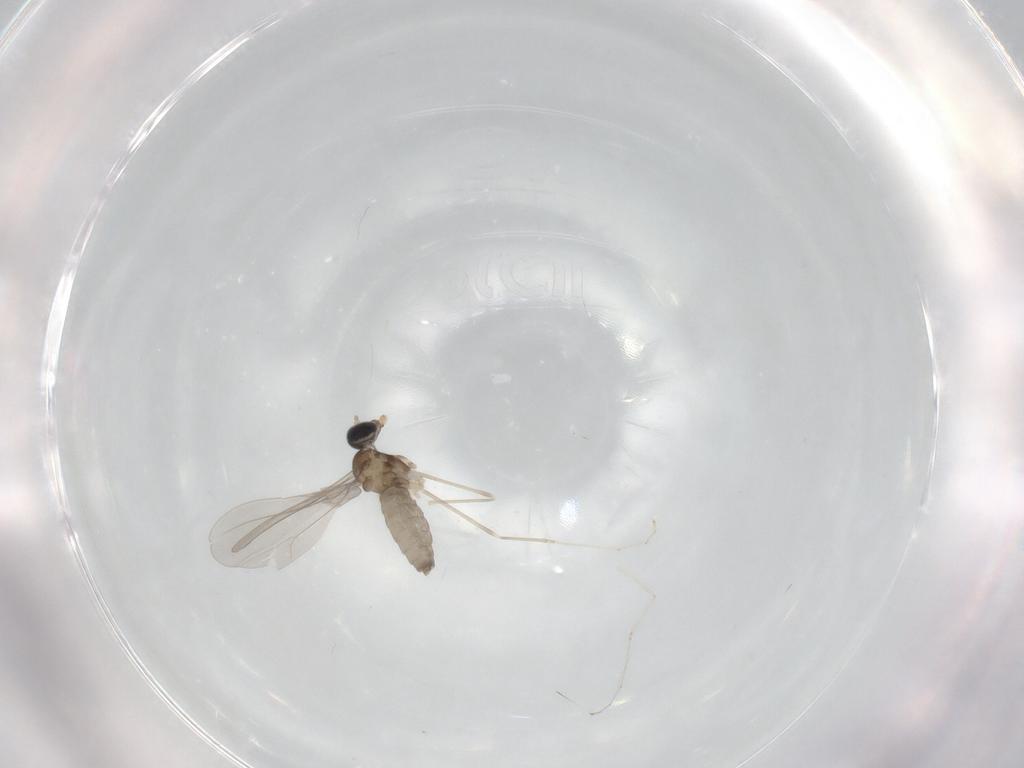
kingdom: Animalia
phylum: Arthropoda
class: Insecta
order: Diptera
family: Cecidomyiidae
